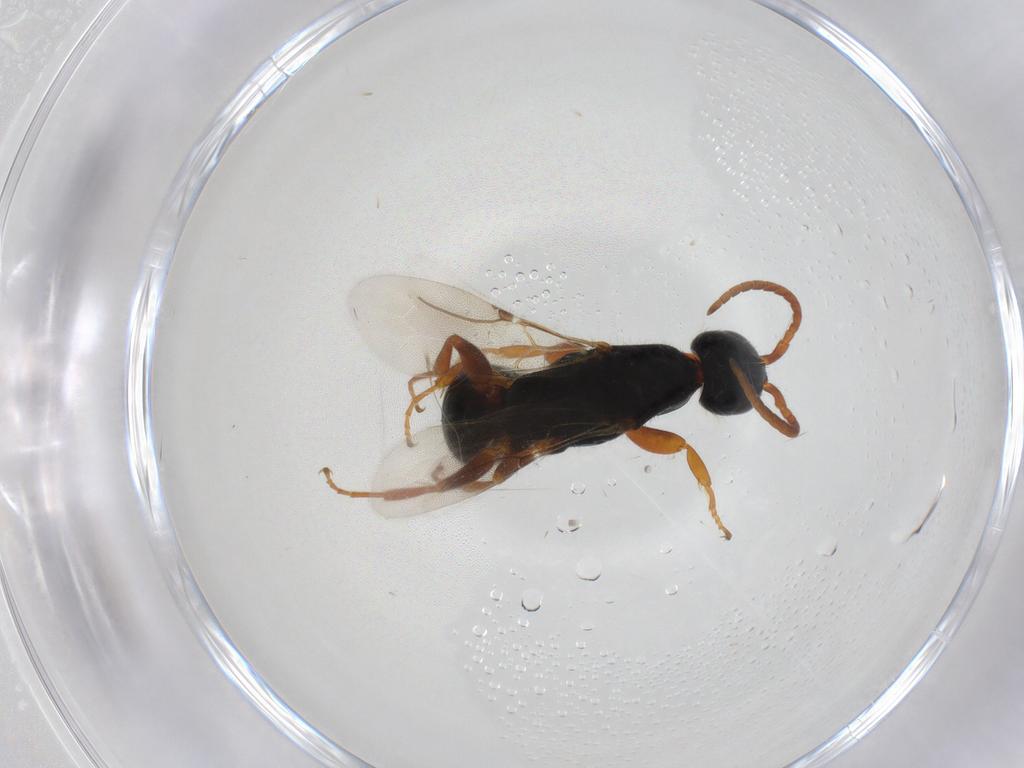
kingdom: Animalia
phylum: Arthropoda
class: Insecta
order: Hymenoptera
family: Bethylidae
